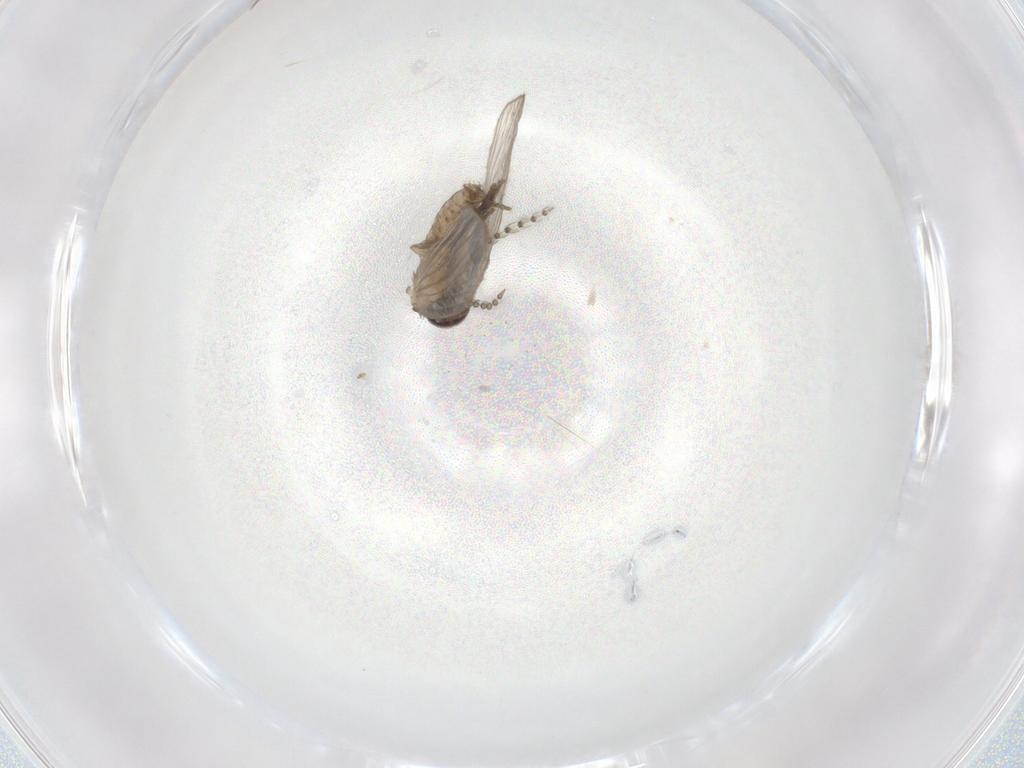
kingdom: Animalia
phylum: Arthropoda
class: Insecta
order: Diptera
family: Psychodidae
